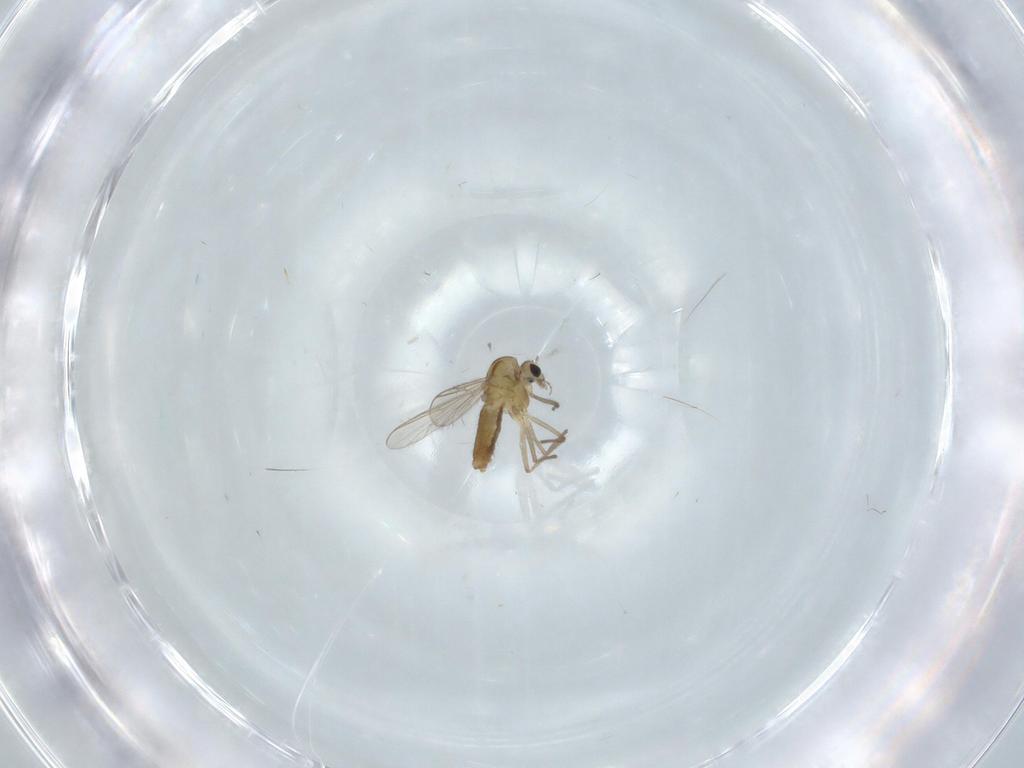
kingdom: Animalia
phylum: Arthropoda
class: Insecta
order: Diptera
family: Chironomidae
